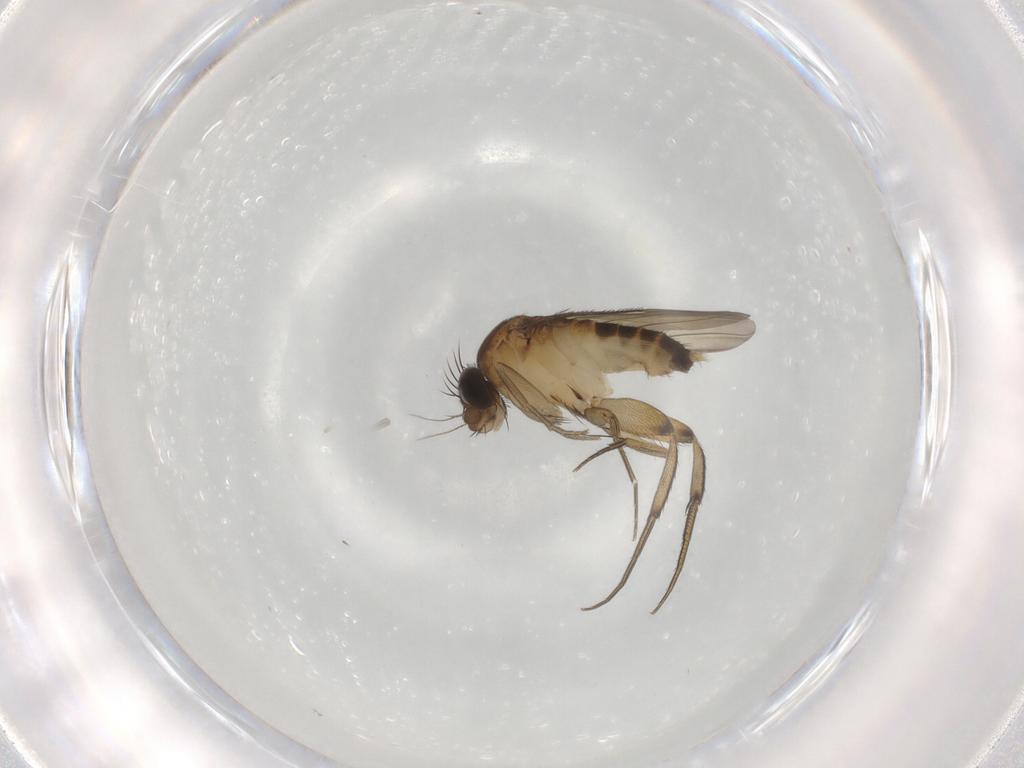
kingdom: Animalia
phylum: Arthropoda
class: Insecta
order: Diptera
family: Phoridae
